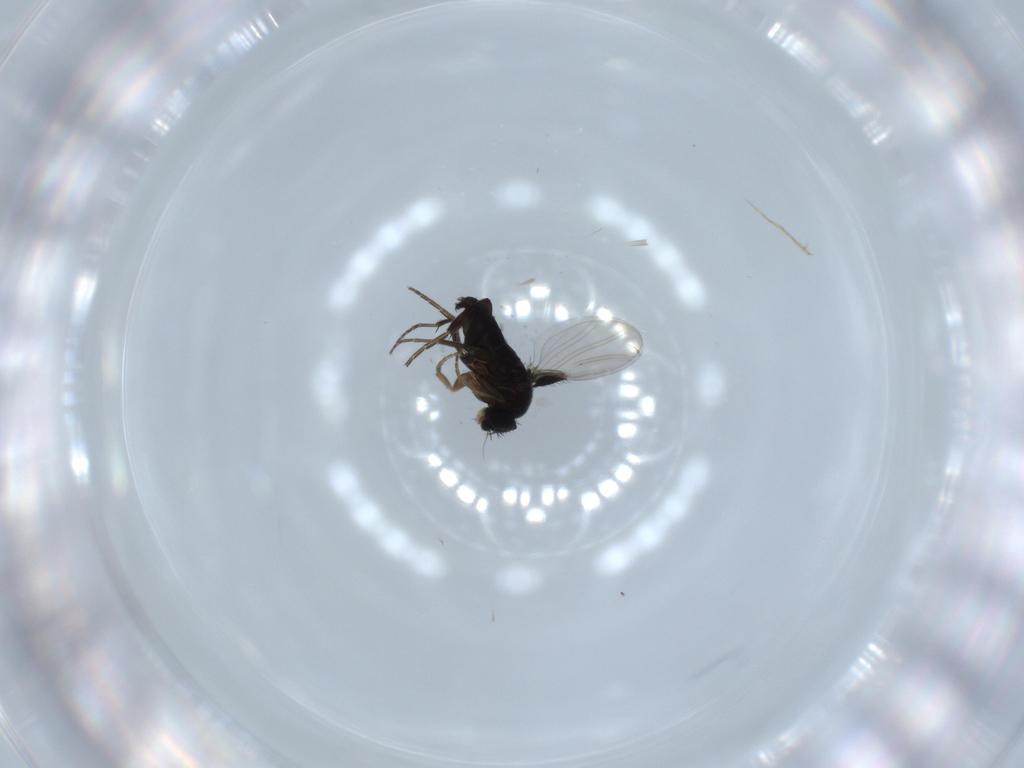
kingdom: Animalia
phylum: Arthropoda
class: Insecta
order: Diptera
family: Phoridae
